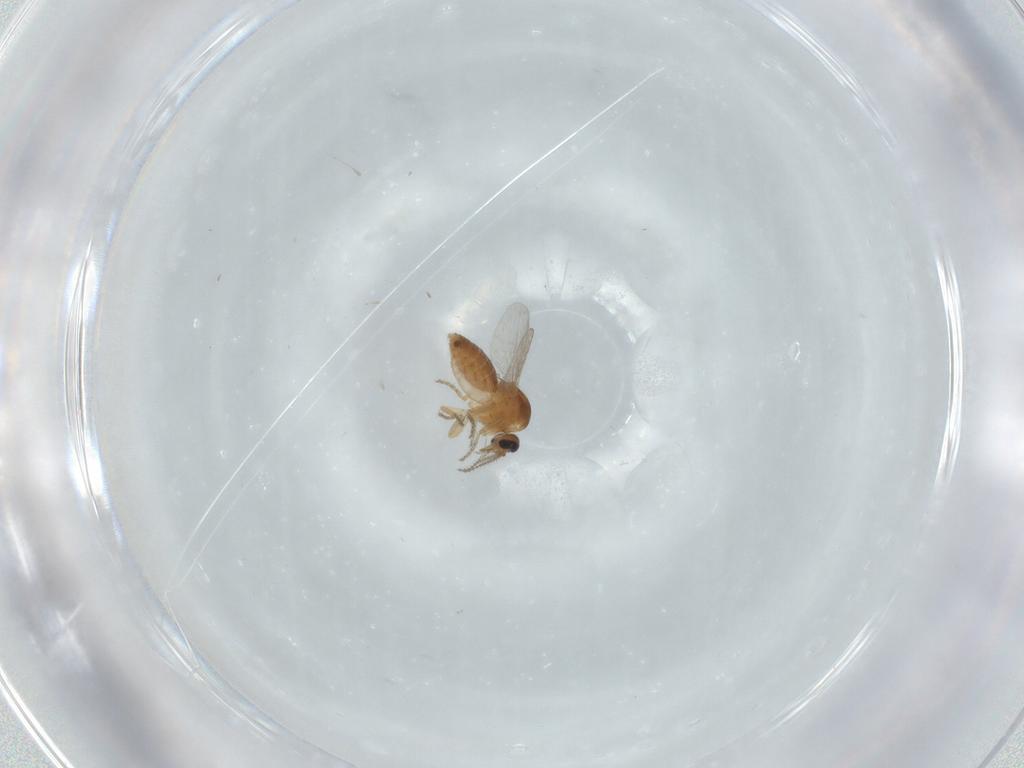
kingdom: Animalia
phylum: Arthropoda
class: Insecta
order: Diptera
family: Ceratopogonidae
